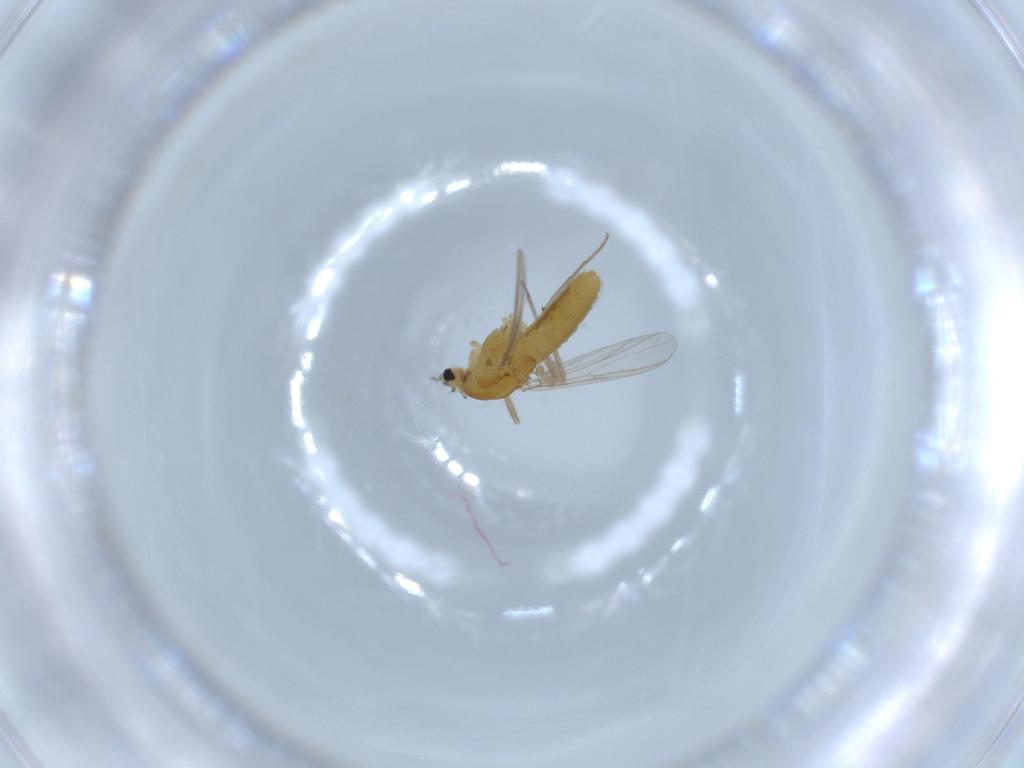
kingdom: Animalia
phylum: Arthropoda
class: Insecta
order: Diptera
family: Chironomidae
